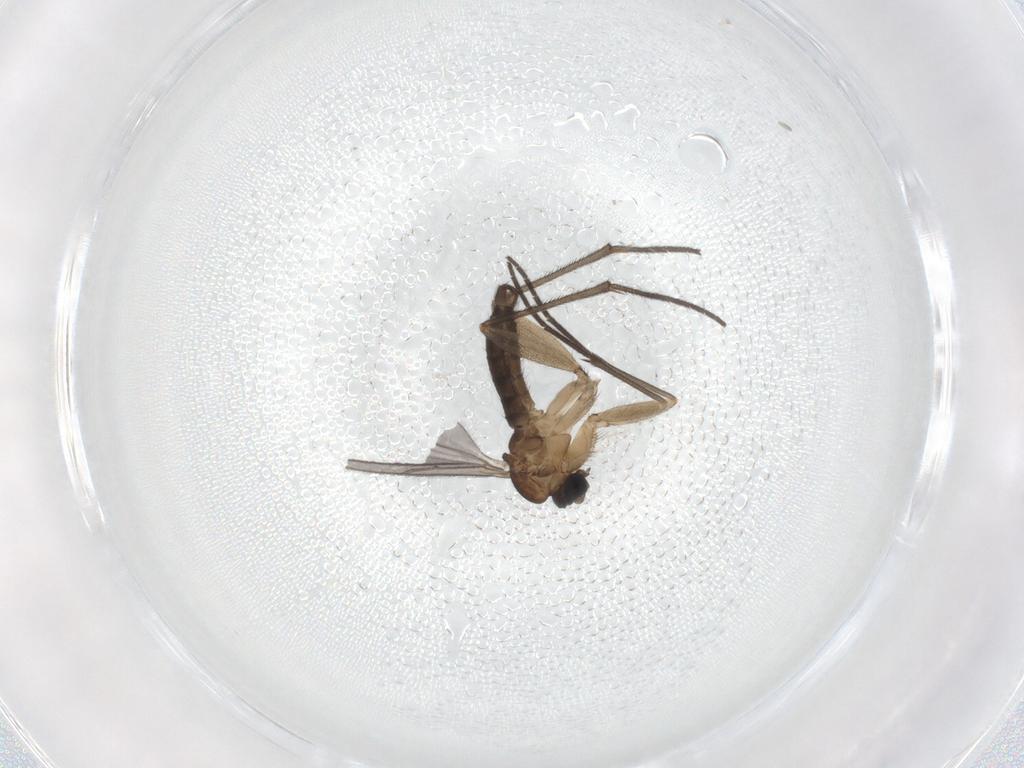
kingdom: Animalia
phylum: Arthropoda
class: Insecta
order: Diptera
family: Sciaridae
